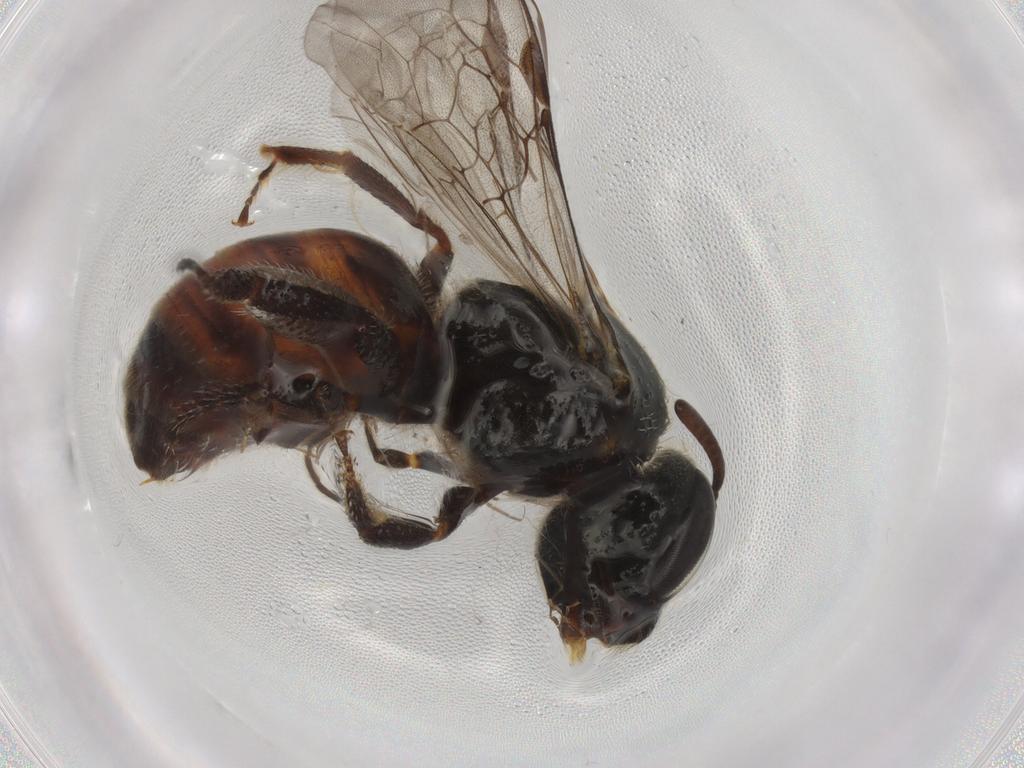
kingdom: Animalia
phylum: Arthropoda
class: Insecta
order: Hymenoptera
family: Halictidae
